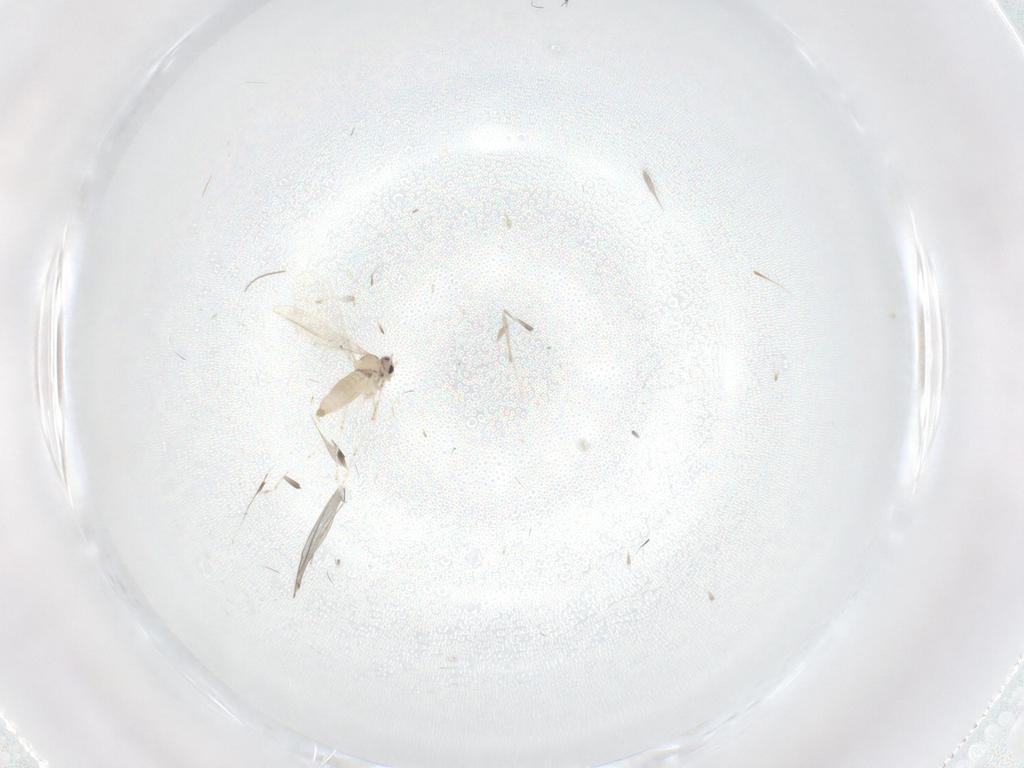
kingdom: Animalia
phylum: Arthropoda
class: Insecta
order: Diptera
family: Cecidomyiidae
